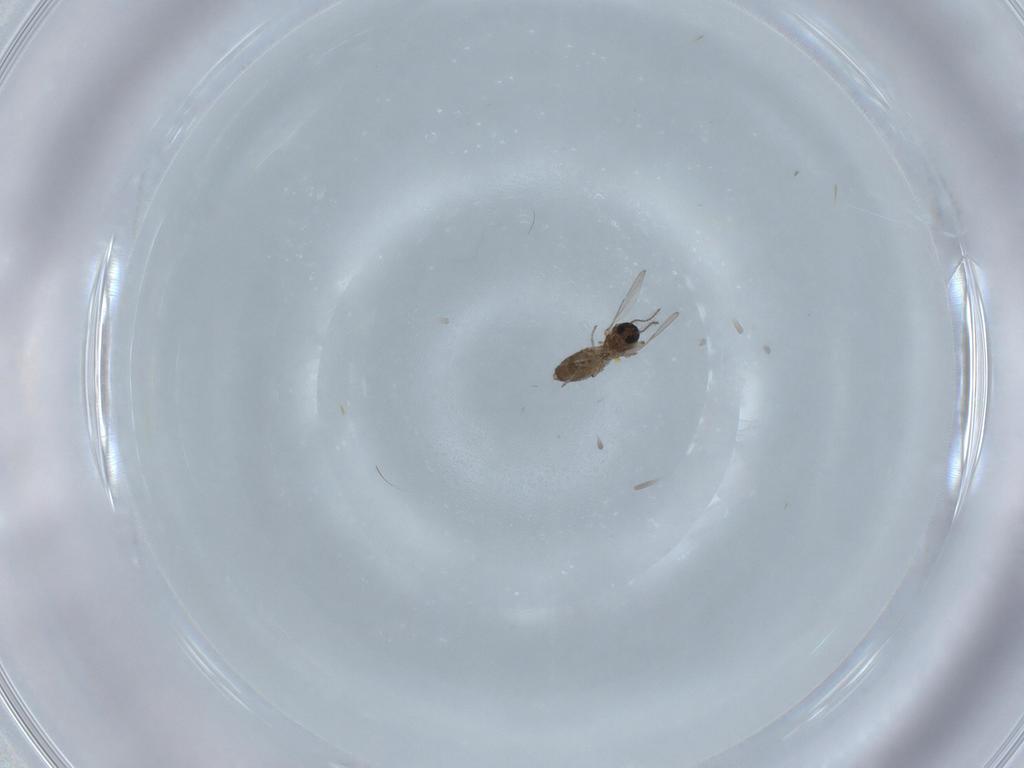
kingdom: Animalia
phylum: Arthropoda
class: Insecta
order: Diptera
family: Ceratopogonidae
